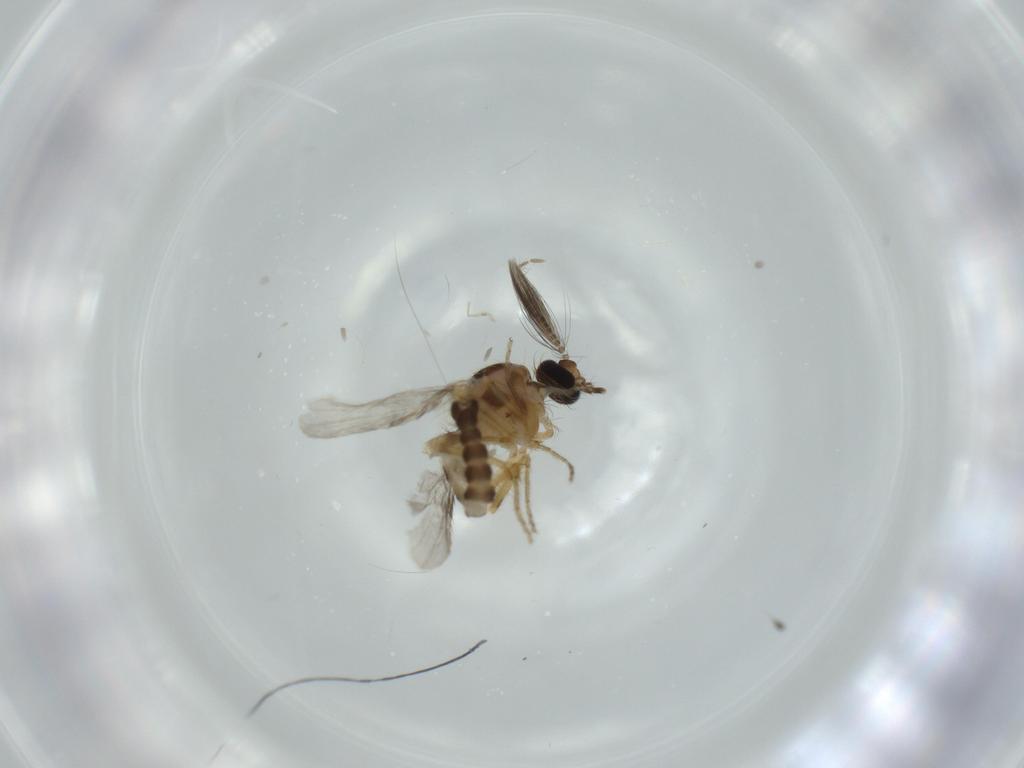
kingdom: Animalia
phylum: Arthropoda
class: Insecta
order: Diptera
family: Ceratopogonidae
